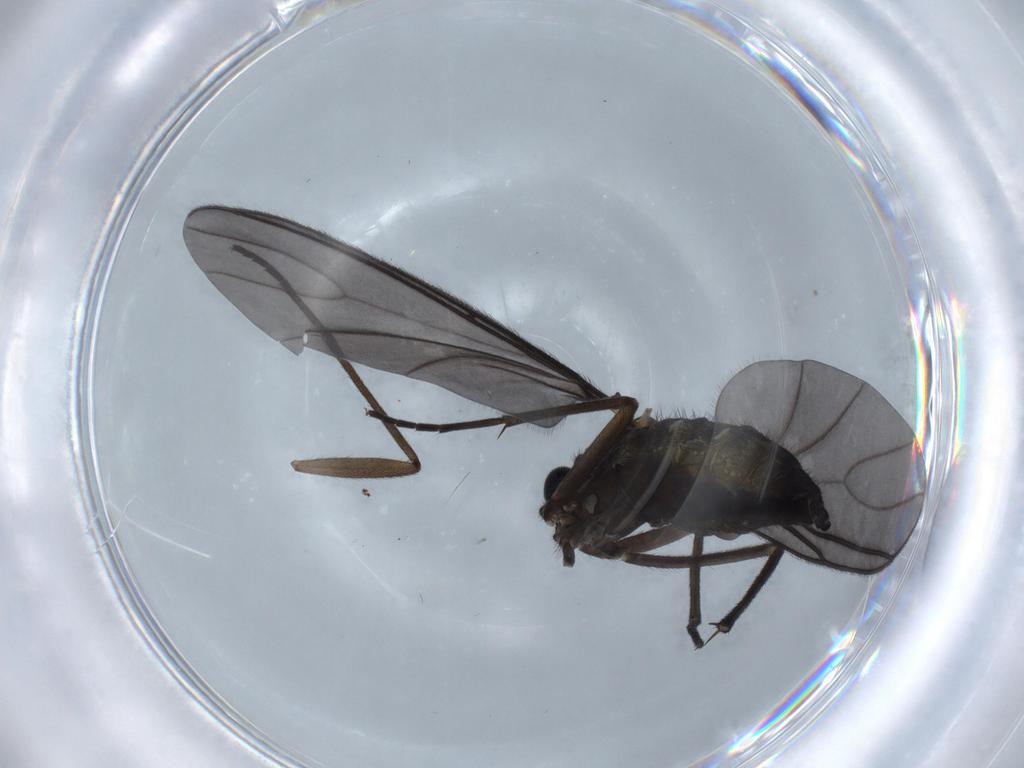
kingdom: Animalia
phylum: Arthropoda
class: Insecta
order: Diptera
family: Sciaridae
